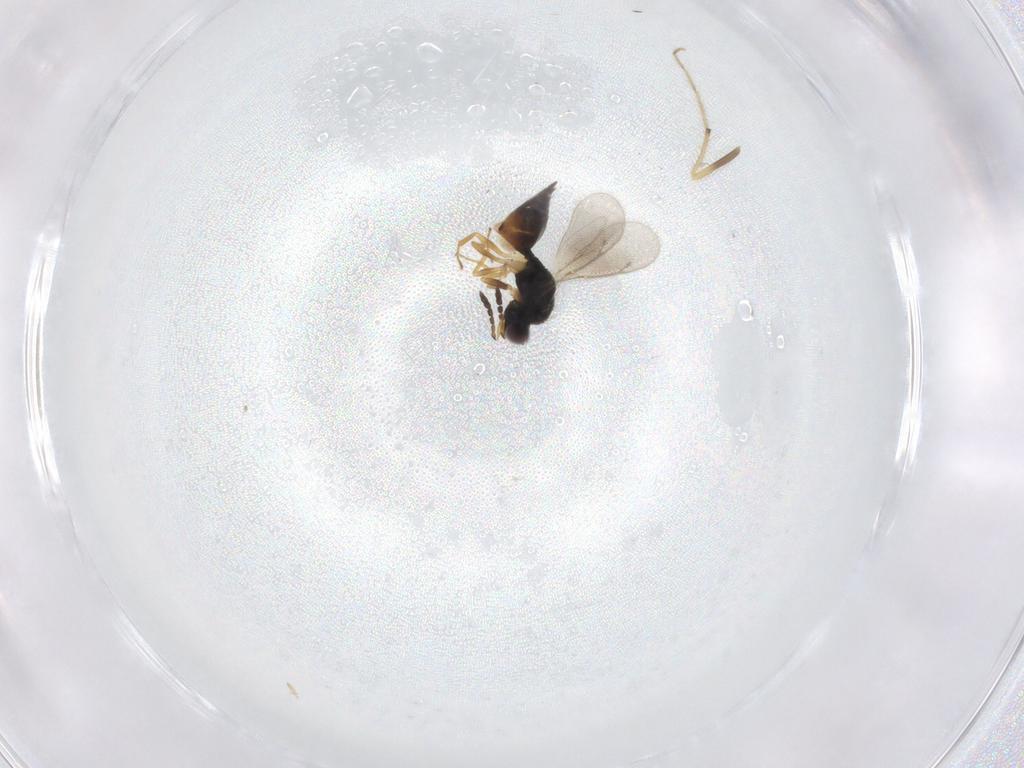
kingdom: Animalia
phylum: Arthropoda
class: Insecta
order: Hymenoptera
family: Eulophidae
